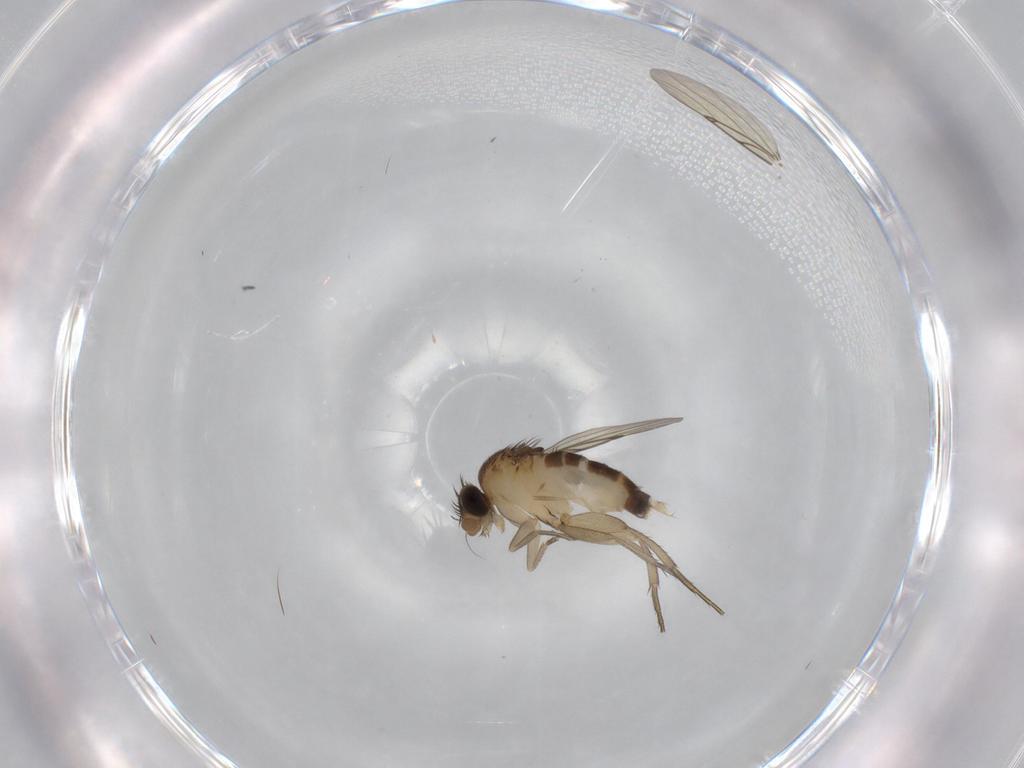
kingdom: Animalia
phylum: Arthropoda
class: Insecta
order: Diptera
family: Phoridae
